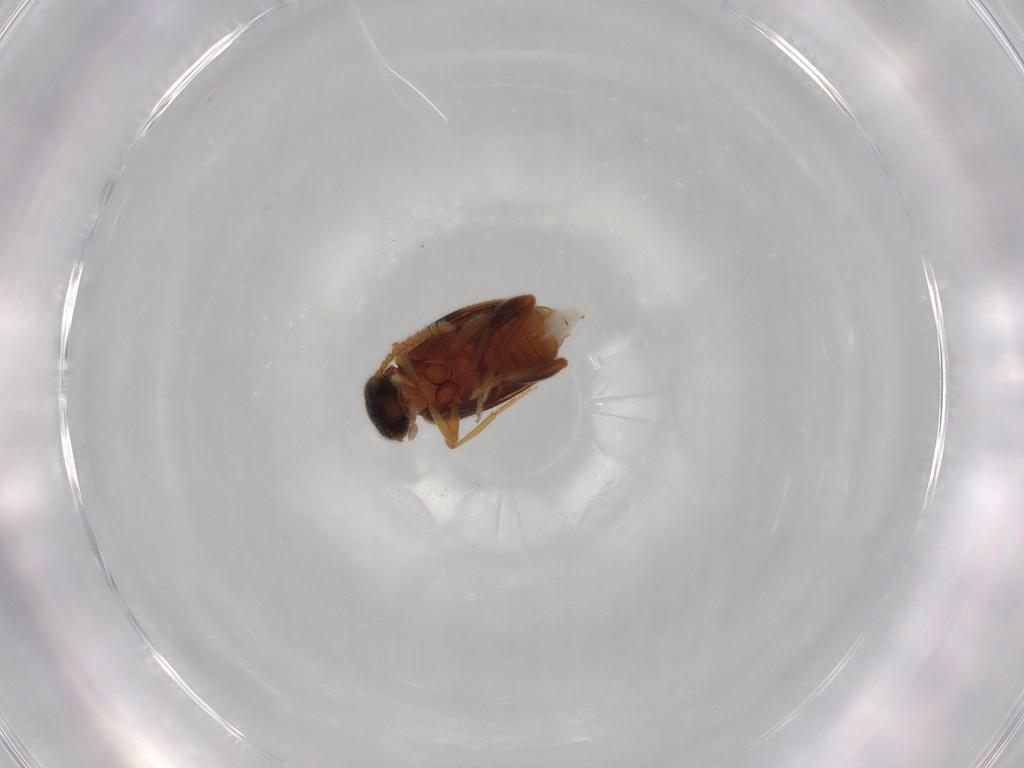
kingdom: Animalia
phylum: Arthropoda
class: Insecta
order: Coleoptera
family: Aderidae
